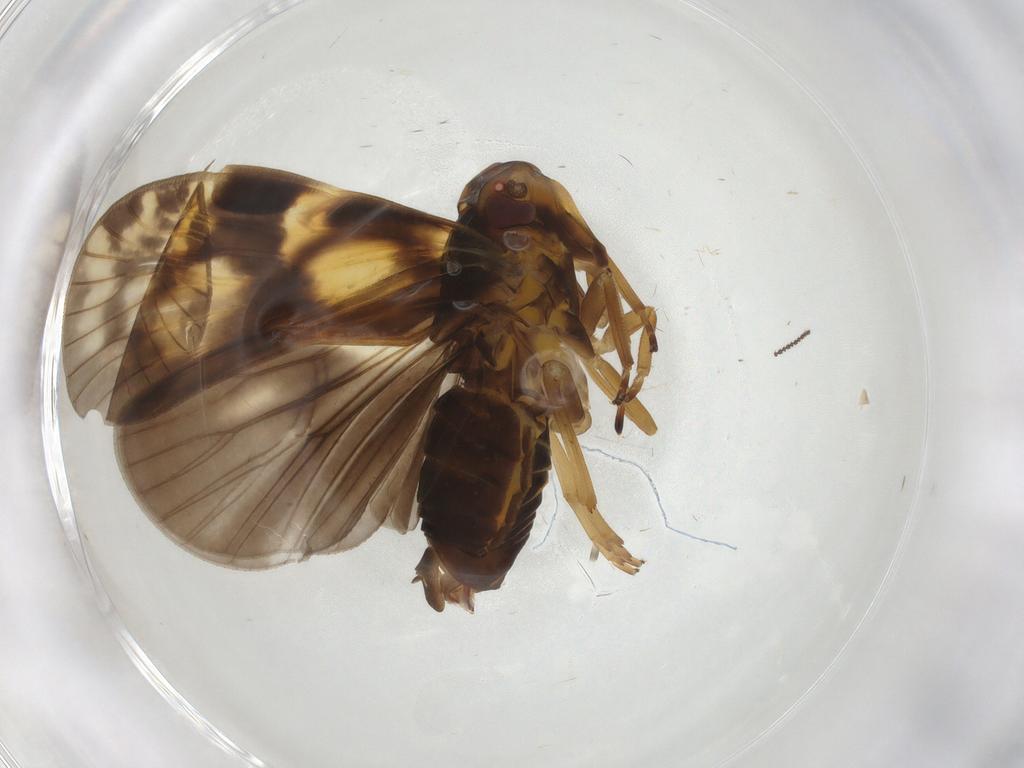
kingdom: Animalia
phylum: Arthropoda
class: Insecta
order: Hemiptera
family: Cixiidae
